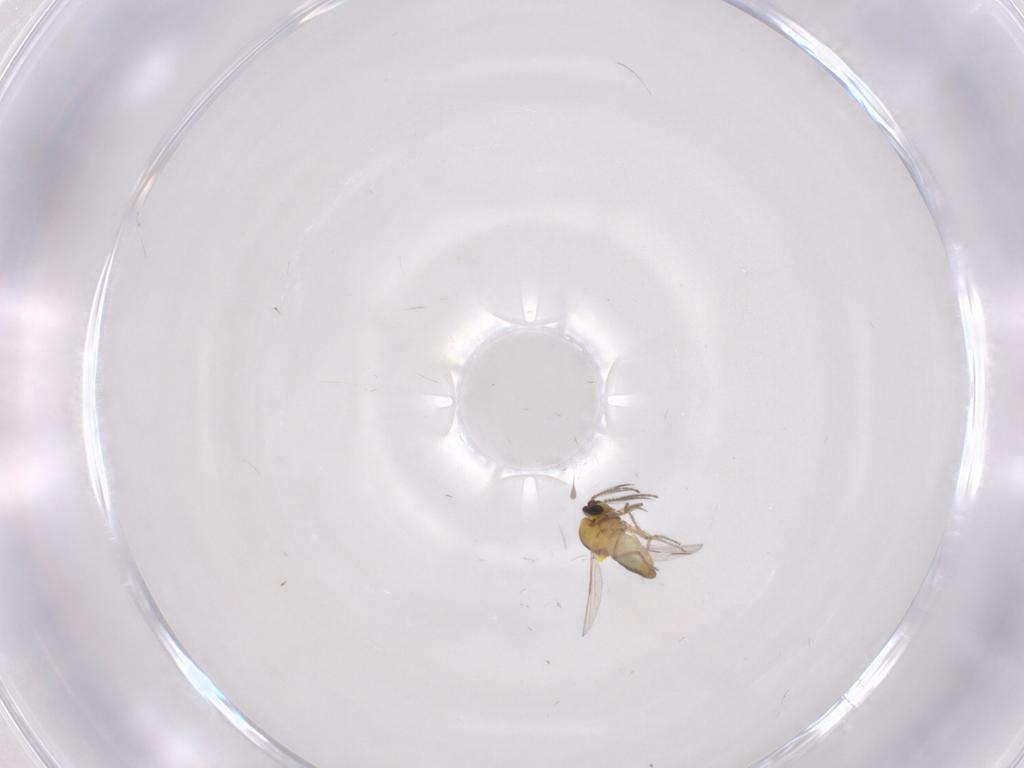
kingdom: Animalia
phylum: Arthropoda
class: Insecta
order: Diptera
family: Ceratopogonidae
